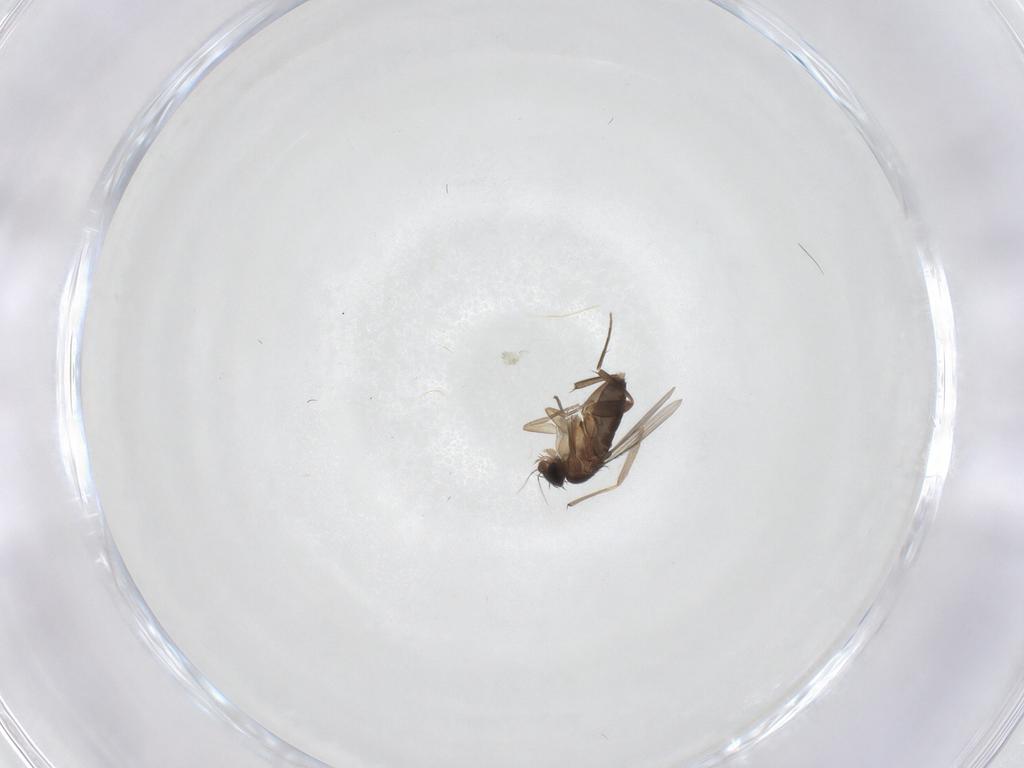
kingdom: Animalia
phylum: Arthropoda
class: Insecta
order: Diptera
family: Phoridae
